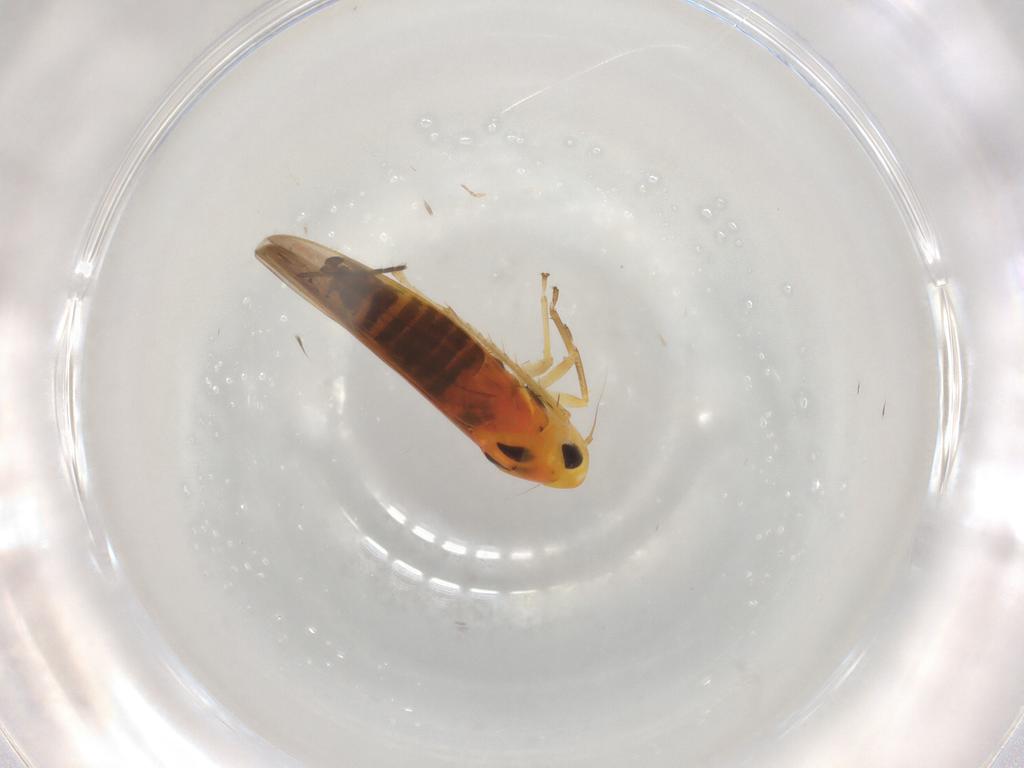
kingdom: Animalia
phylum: Arthropoda
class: Insecta
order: Hemiptera
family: Cicadellidae
